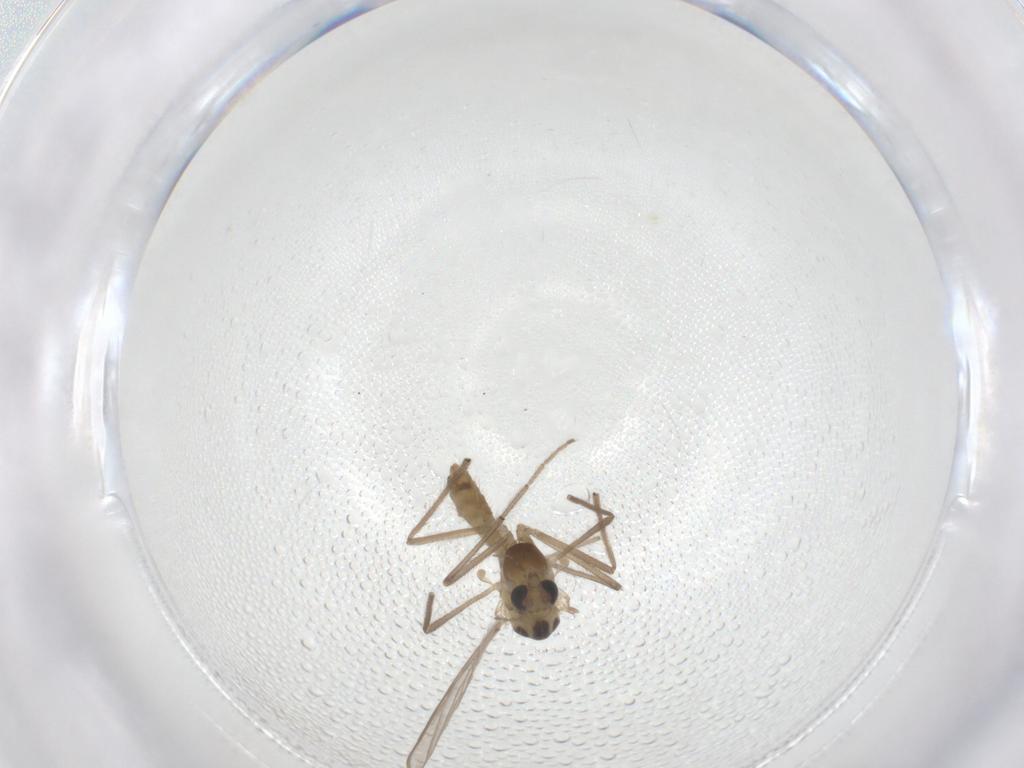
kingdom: Animalia
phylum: Arthropoda
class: Insecta
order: Diptera
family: Chironomidae
